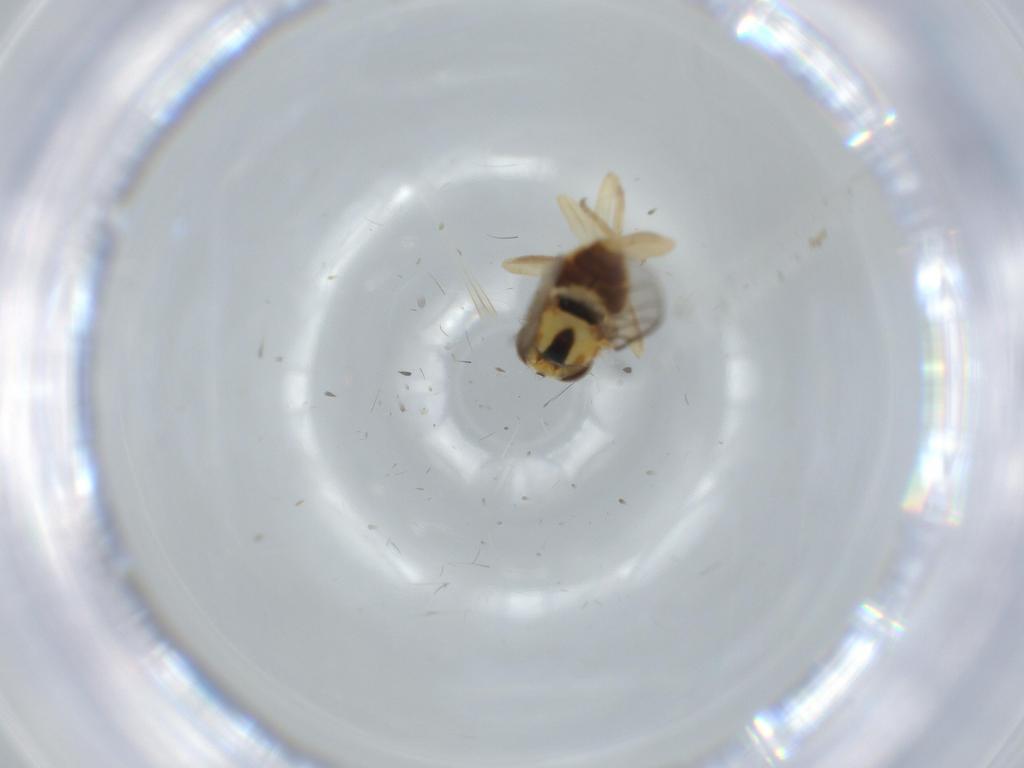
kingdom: Animalia
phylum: Arthropoda
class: Insecta
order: Diptera
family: Chloropidae
